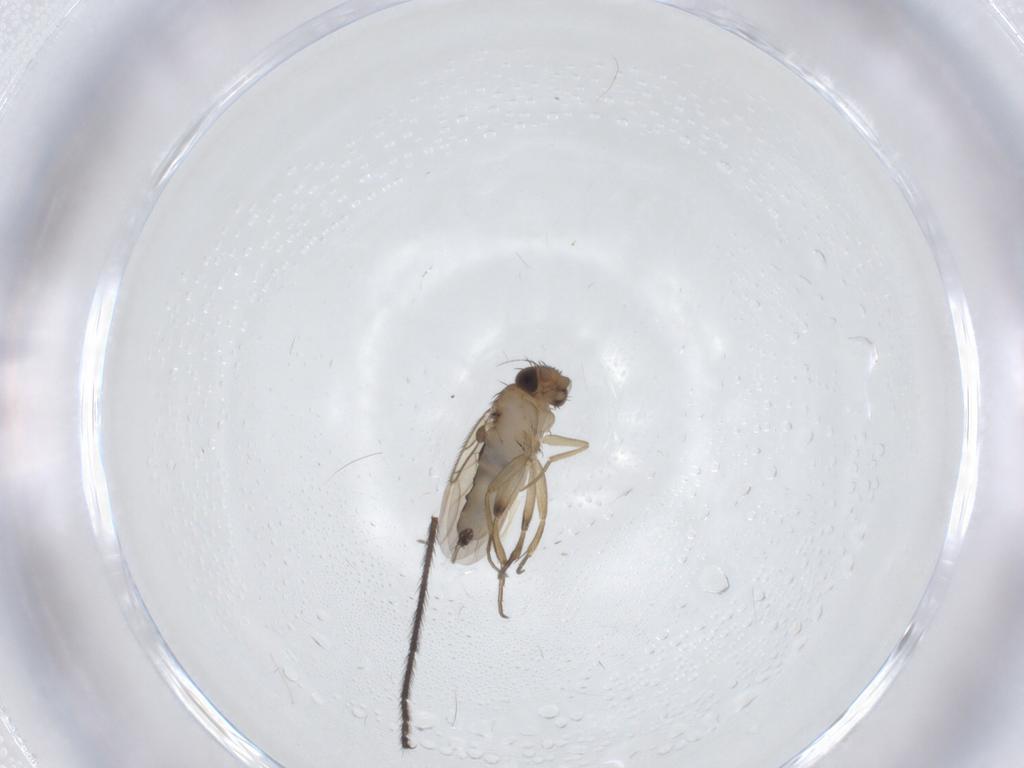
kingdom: Animalia
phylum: Arthropoda
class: Insecta
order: Diptera
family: Phoridae
